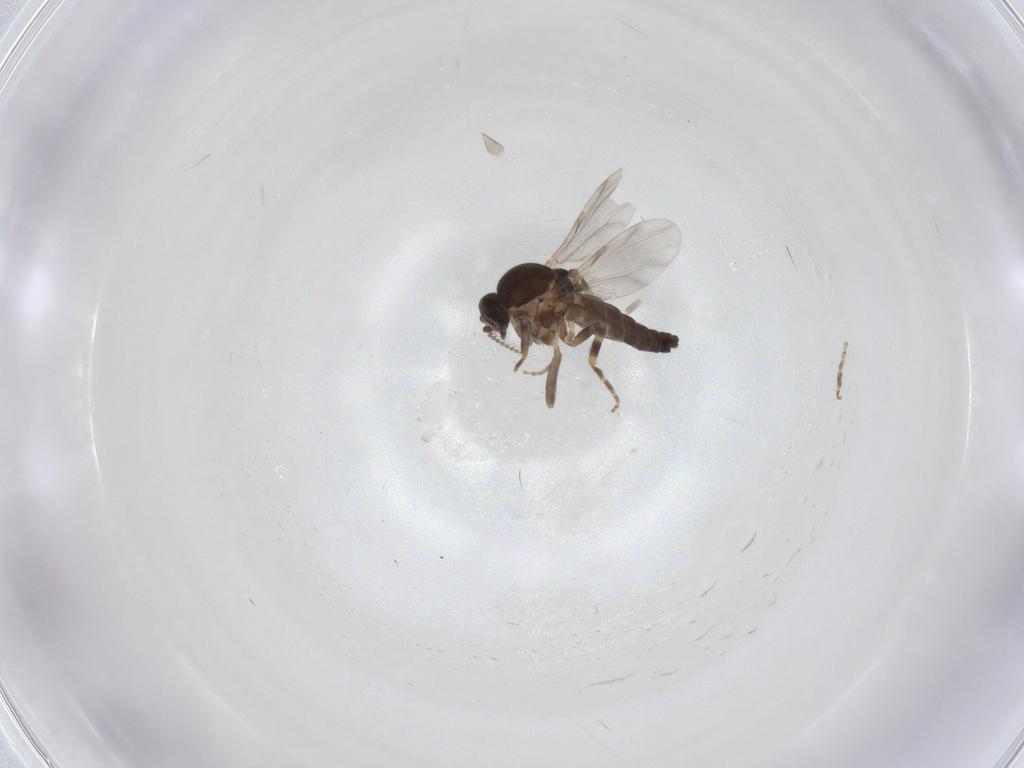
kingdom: Animalia
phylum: Arthropoda
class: Insecta
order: Diptera
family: Ceratopogonidae
